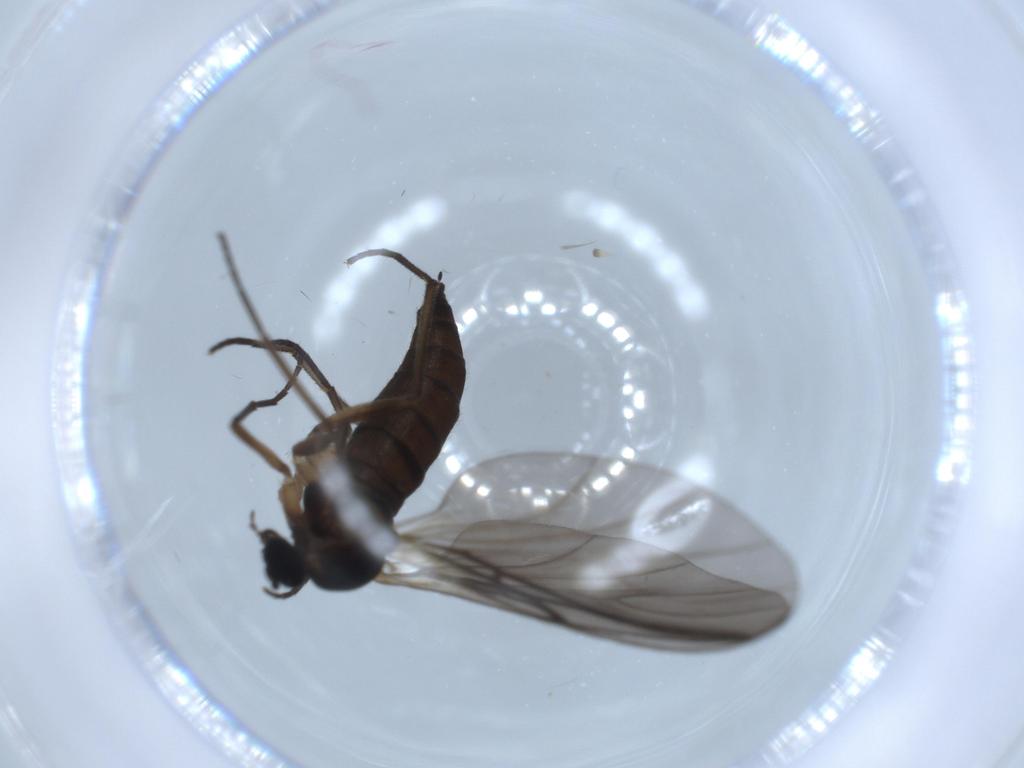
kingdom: Animalia
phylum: Arthropoda
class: Insecta
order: Diptera
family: Sciaridae
